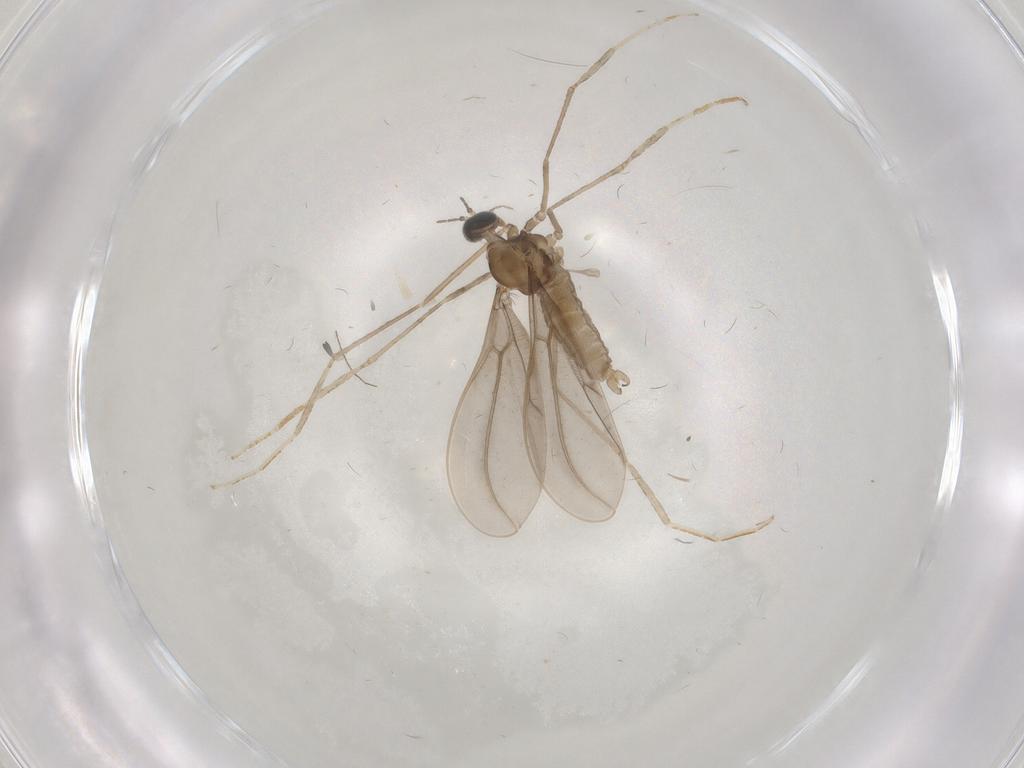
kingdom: Animalia
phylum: Arthropoda
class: Insecta
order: Diptera
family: Cecidomyiidae
